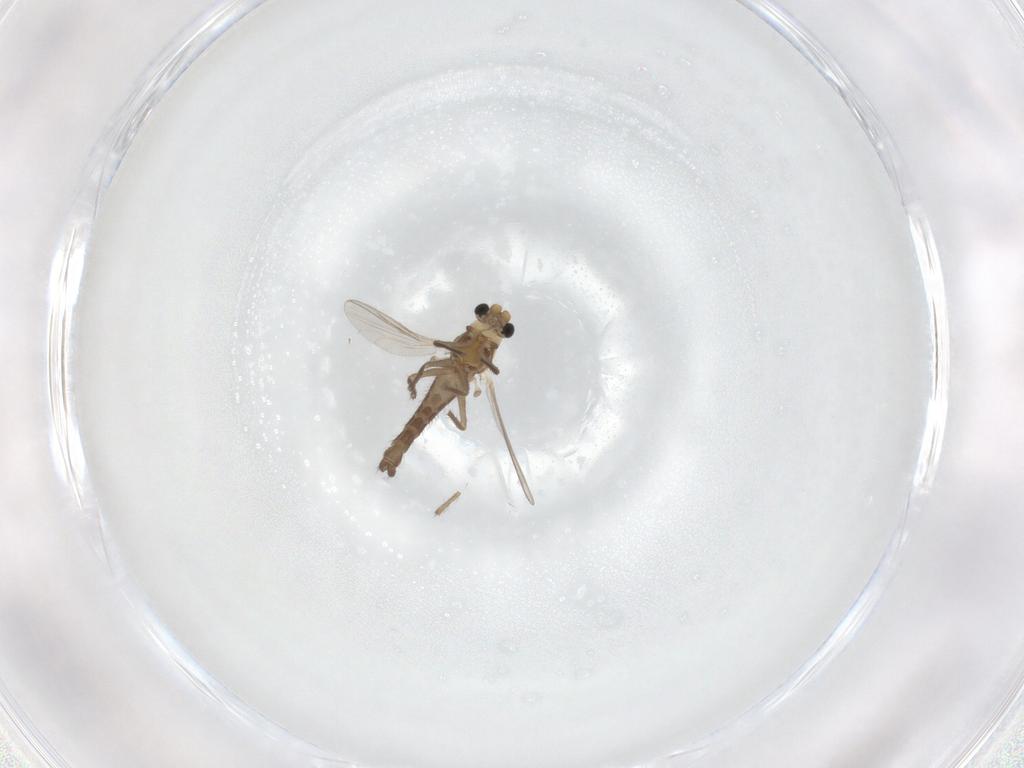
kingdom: Animalia
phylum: Arthropoda
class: Insecta
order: Diptera
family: Chironomidae
